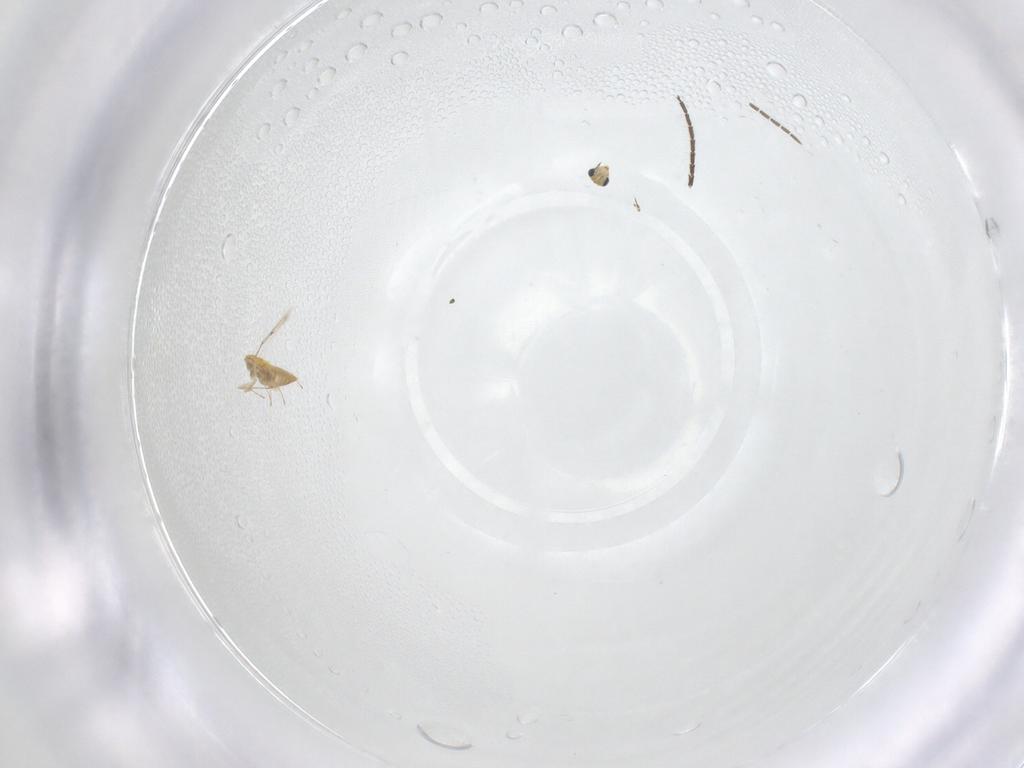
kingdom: Animalia
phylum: Arthropoda
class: Insecta
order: Hymenoptera
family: Trichogrammatidae
